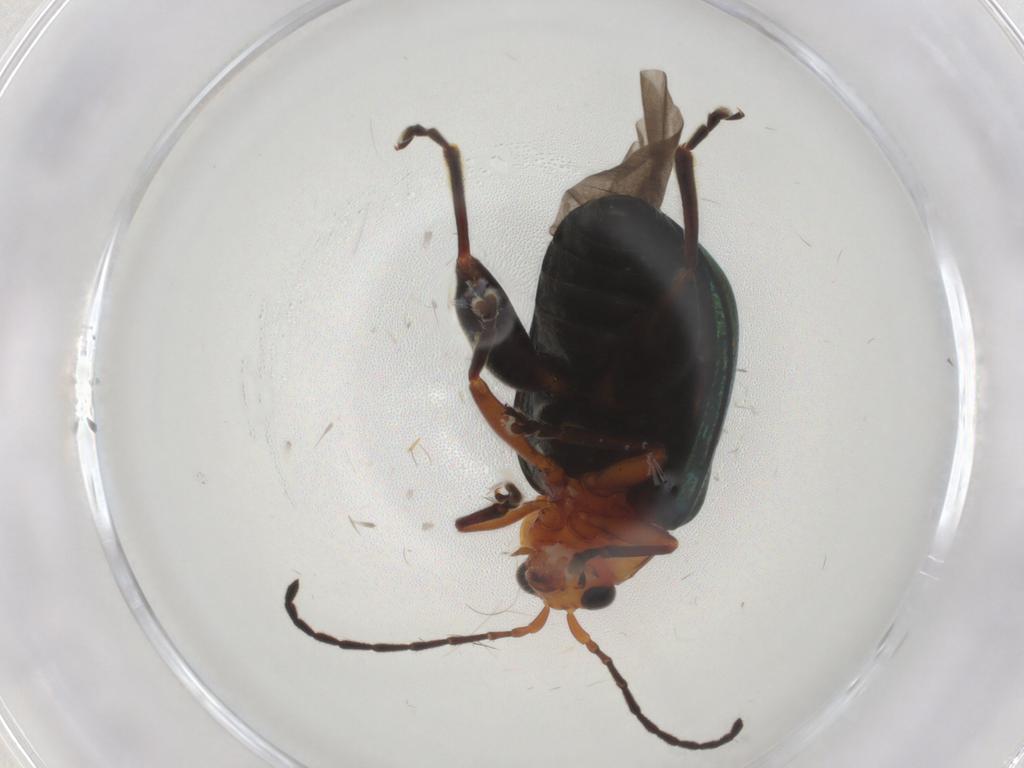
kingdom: Animalia
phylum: Arthropoda
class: Insecta
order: Coleoptera
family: Chrysomelidae
